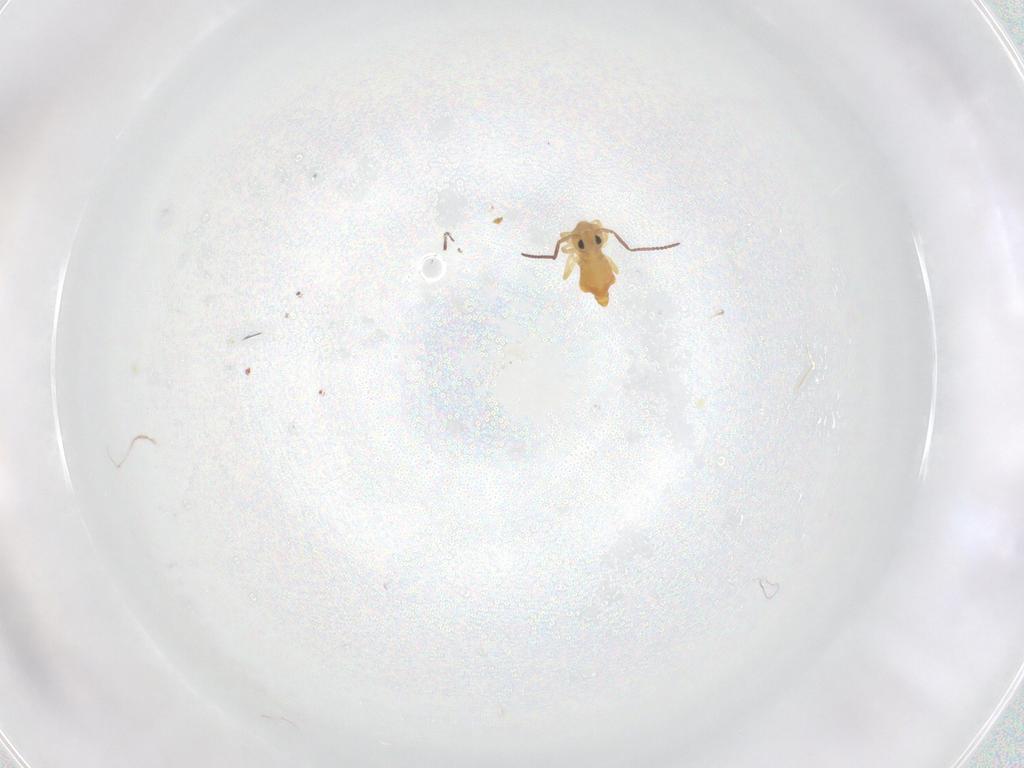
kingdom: Animalia
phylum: Arthropoda
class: Collembola
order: Symphypleona
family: Bourletiellidae
